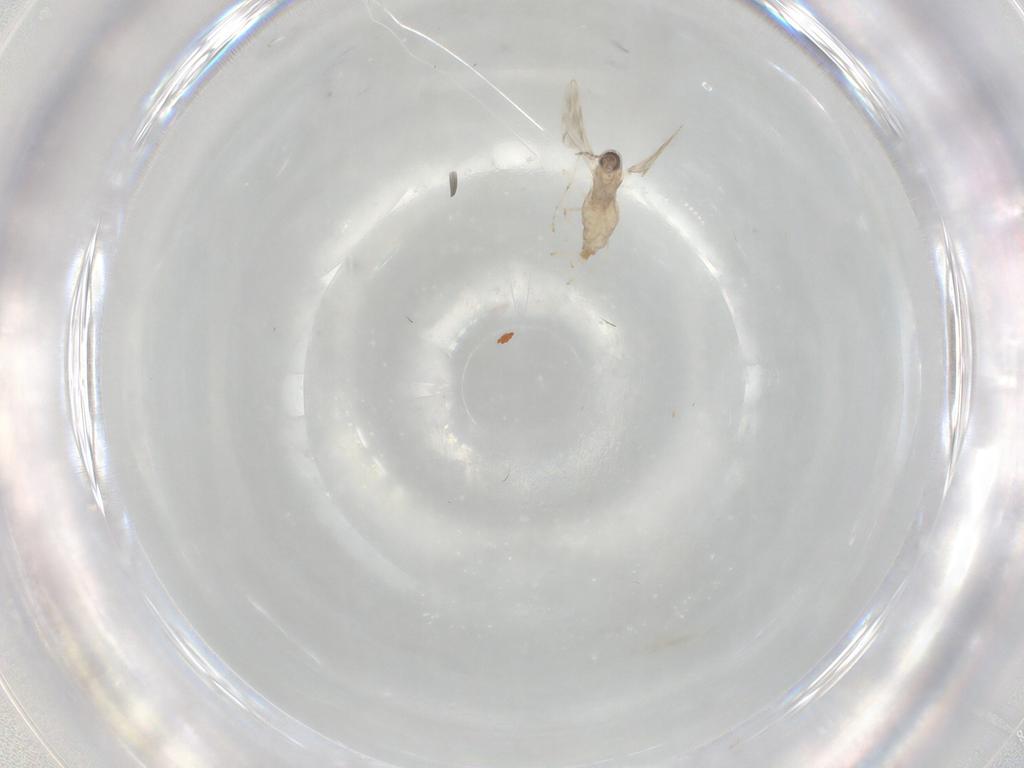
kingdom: Animalia
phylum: Arthropoda
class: Insecta
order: Diptera
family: Cecidomyiidae
